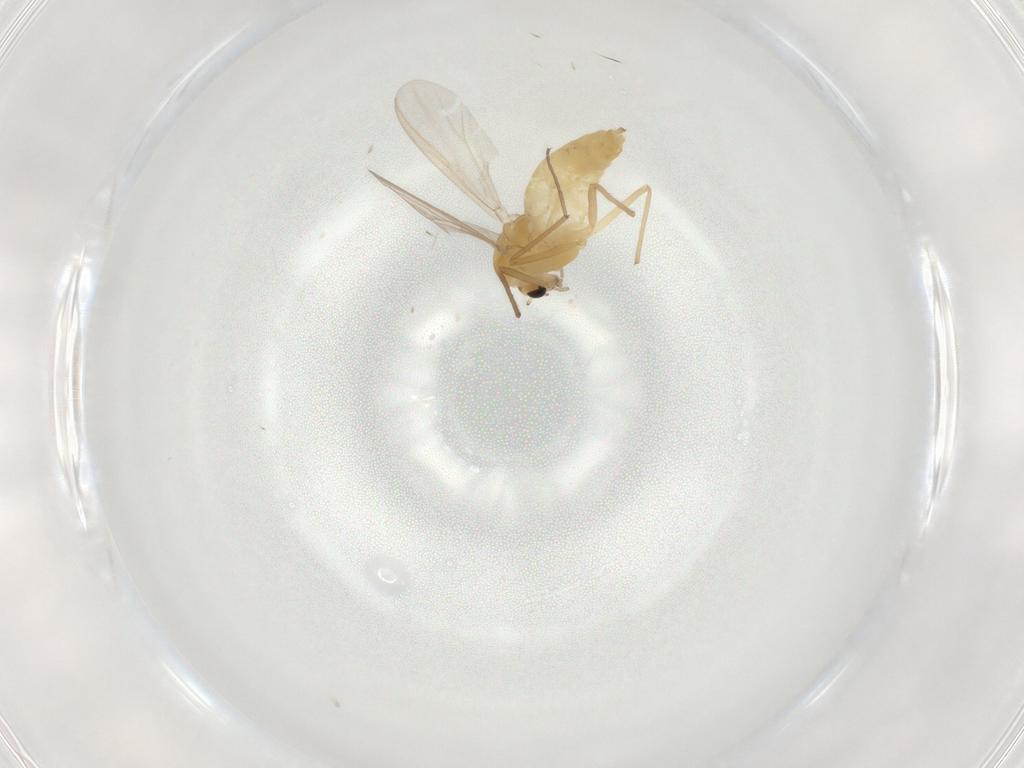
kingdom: Animalia
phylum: Arthropoda
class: Insecta
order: Diptera
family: Chironomidae
